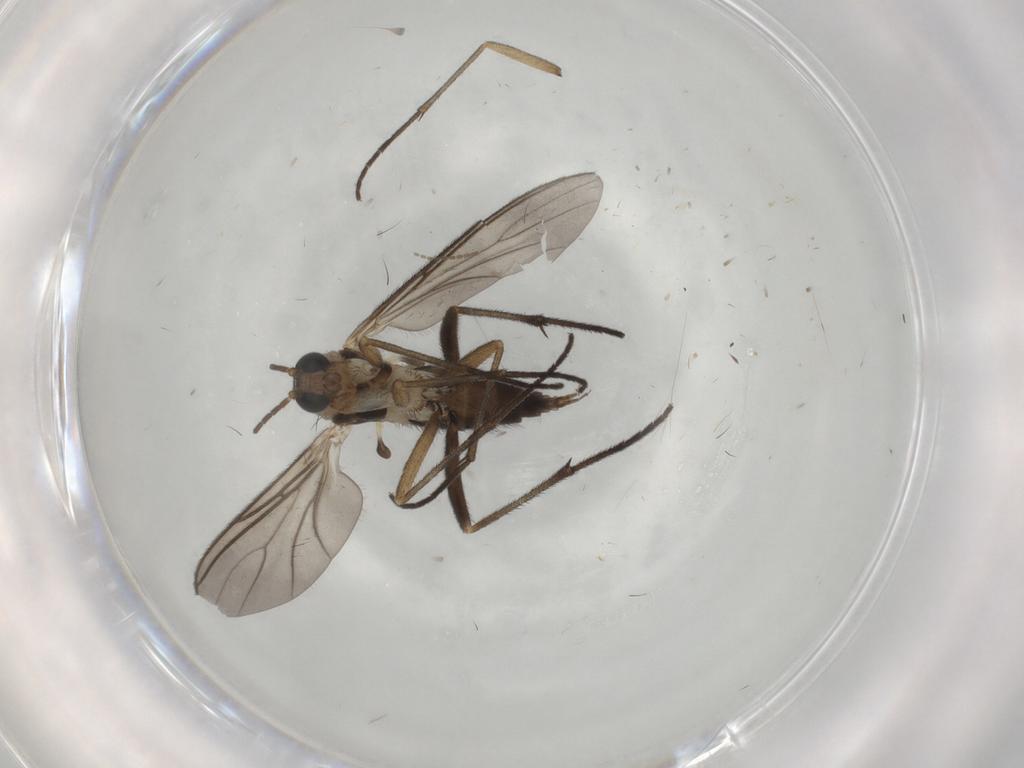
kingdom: Animalia
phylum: Arthropoda
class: Insecta
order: Diptera
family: Sciaridae
